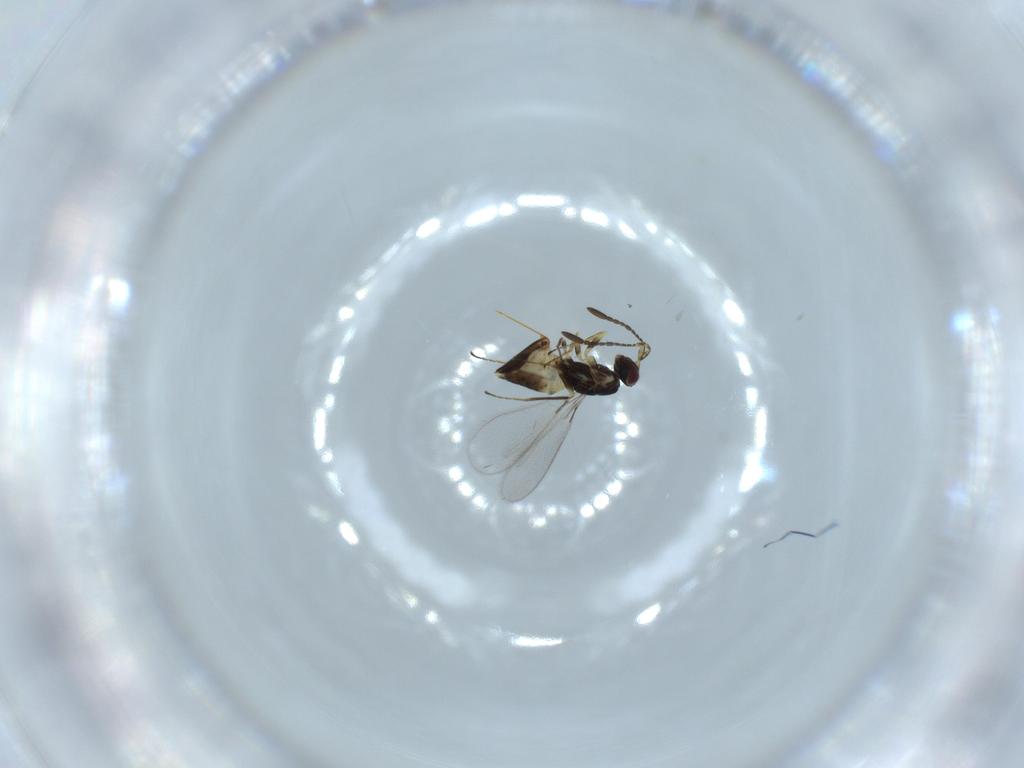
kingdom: Animalia
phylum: Arthropoda
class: Insecta
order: Hymenoptera
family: Mymaridae
